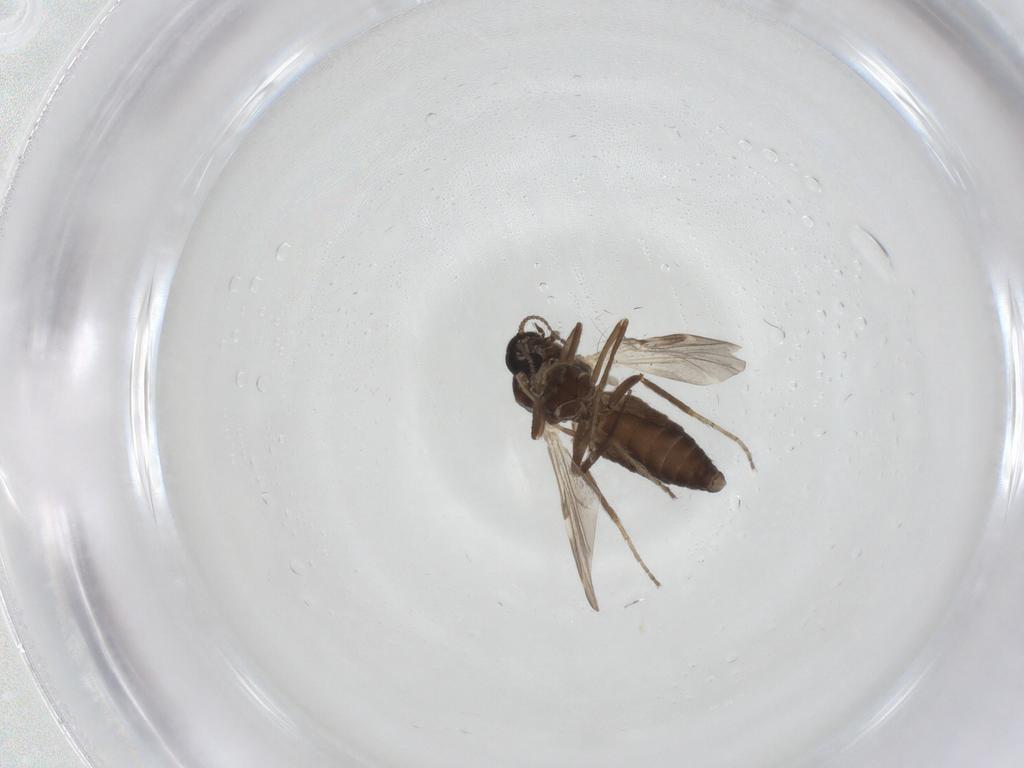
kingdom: Animalia
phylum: Arthropoda
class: Insecta
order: Diptera
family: Ceratopogonidae
